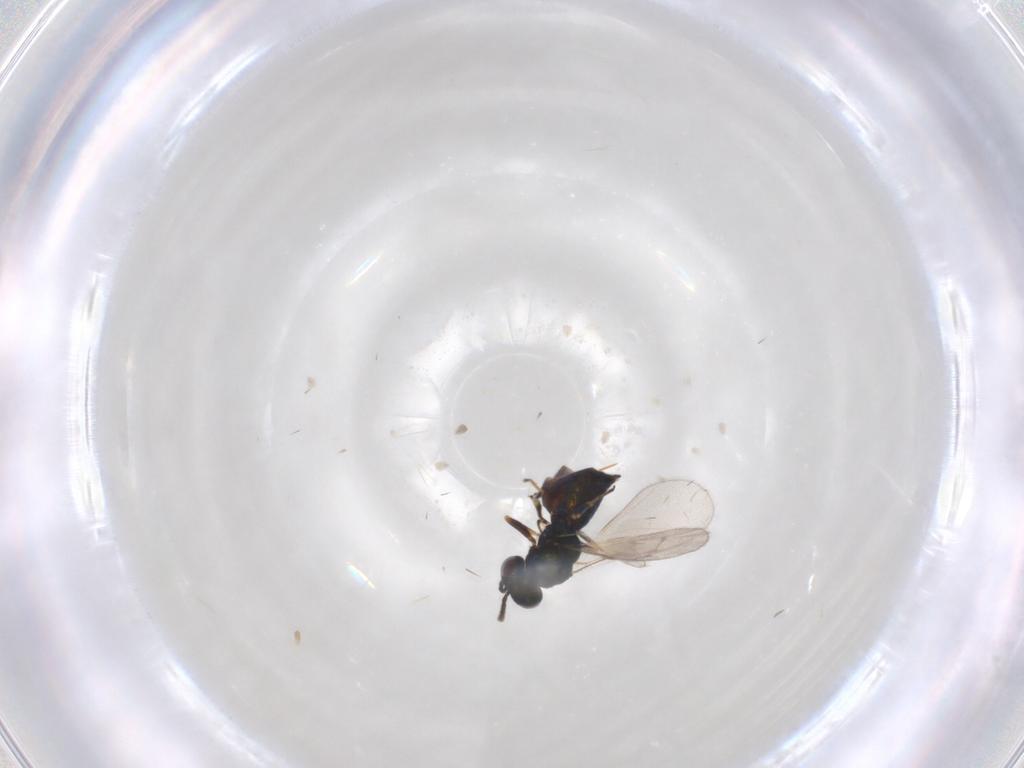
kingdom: Animalia
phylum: Arthropoda
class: Insecta
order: Hymenoptera
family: Pteromalidae
